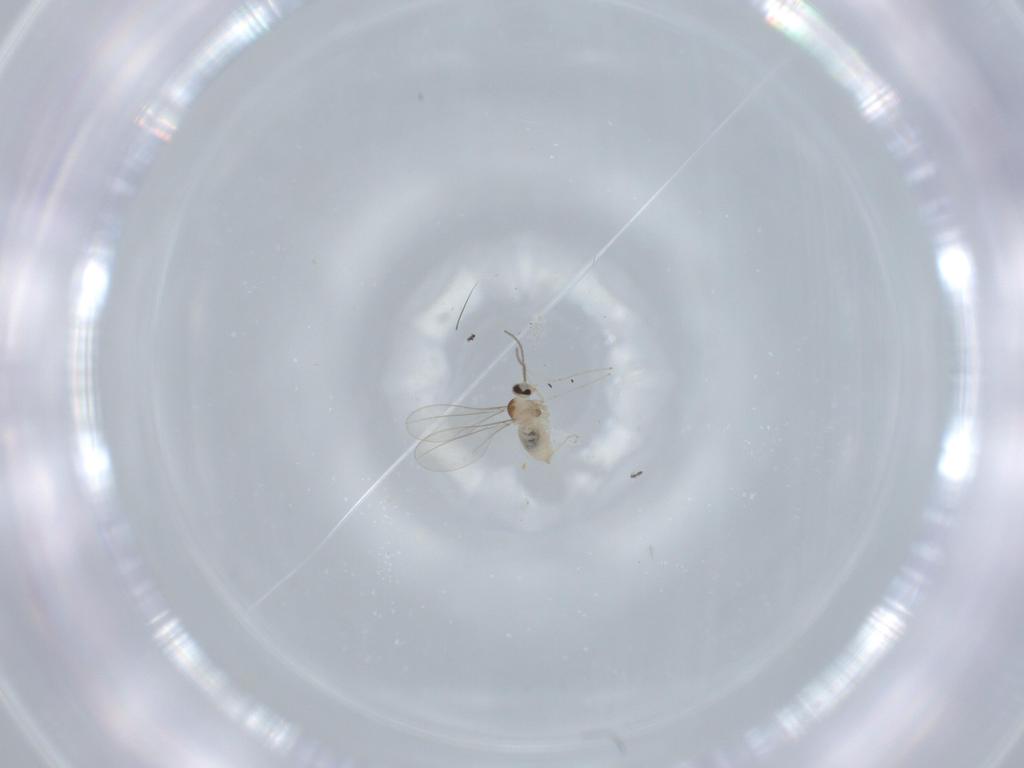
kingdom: Animalia
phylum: Arthropoda
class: Insecta
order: Diptera
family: Cecidomyiidae
